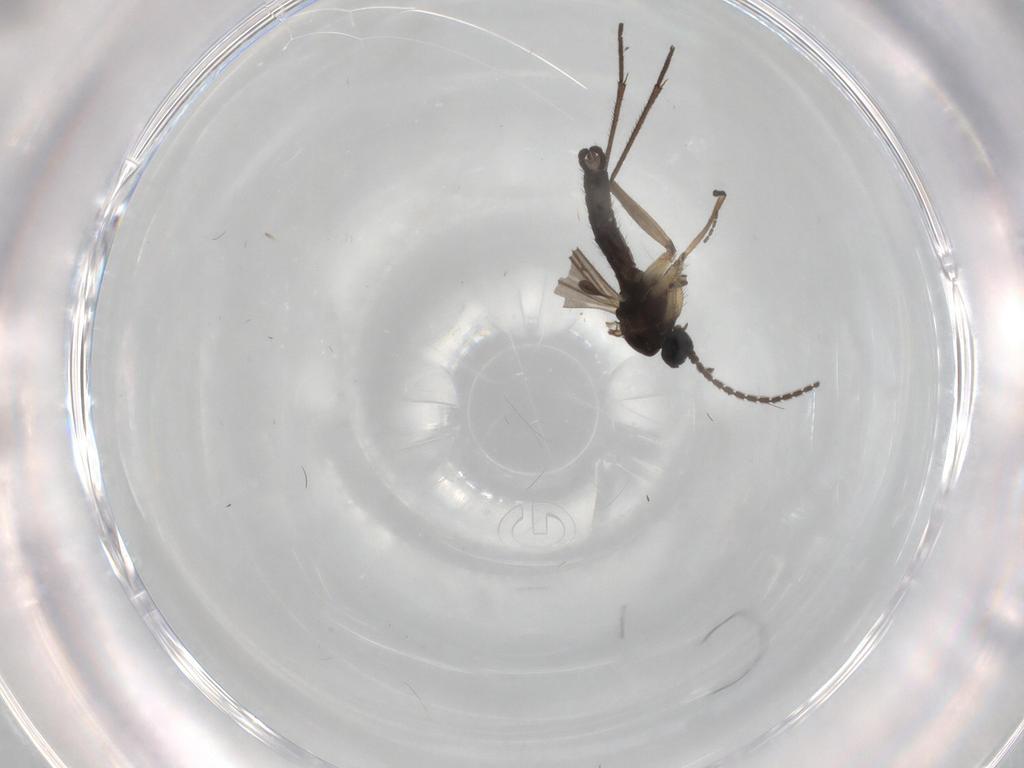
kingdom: Animalia
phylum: Arthropoda
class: Insecta
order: Diptera
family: Sciaridae
